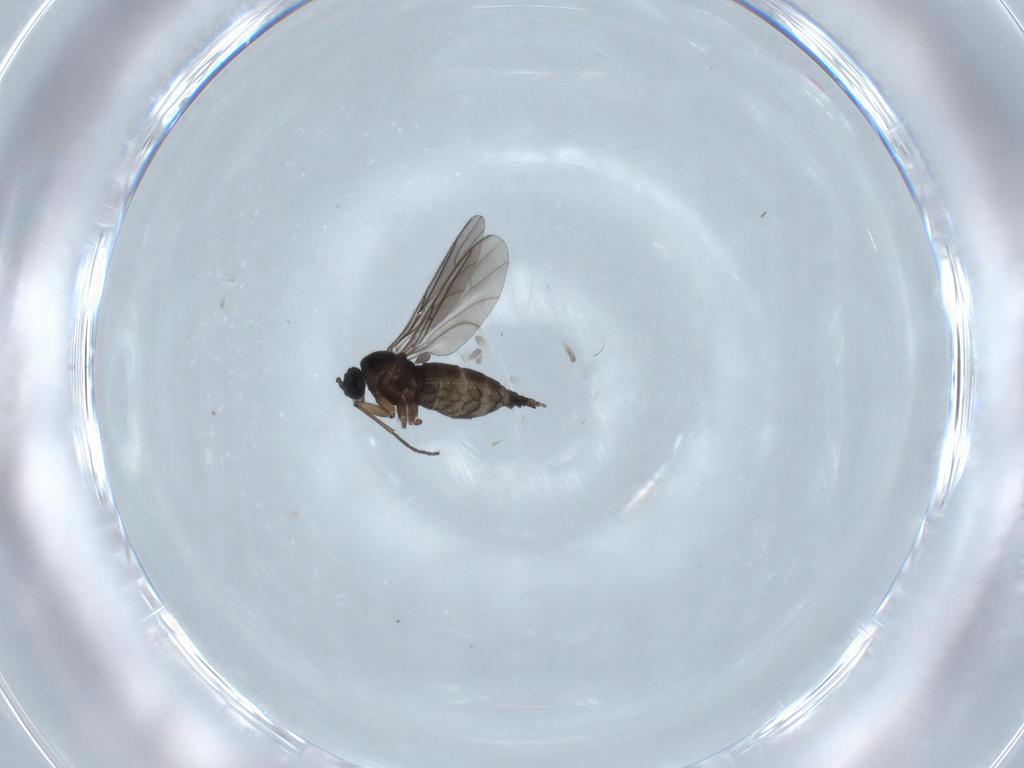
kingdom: Animalia
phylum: Arthropoda
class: Insecta
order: Diptera
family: Sciaridae
